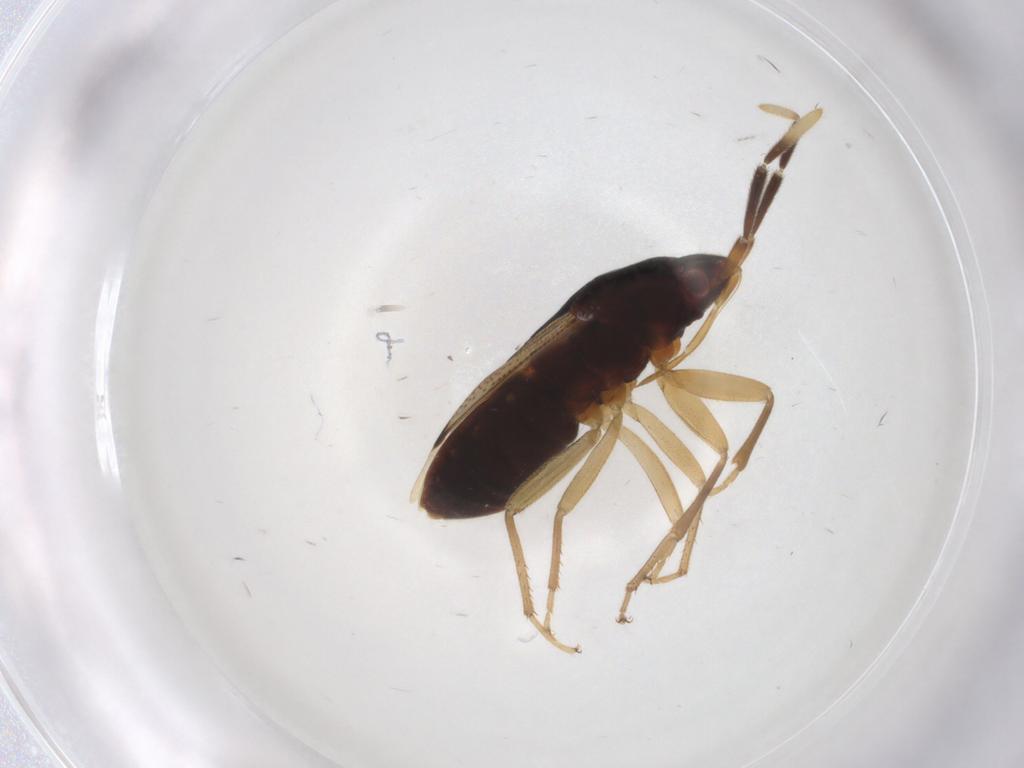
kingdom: Animalia
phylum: Arthropoda
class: Insecta
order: Hemiptera
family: Rhyparochromidae
